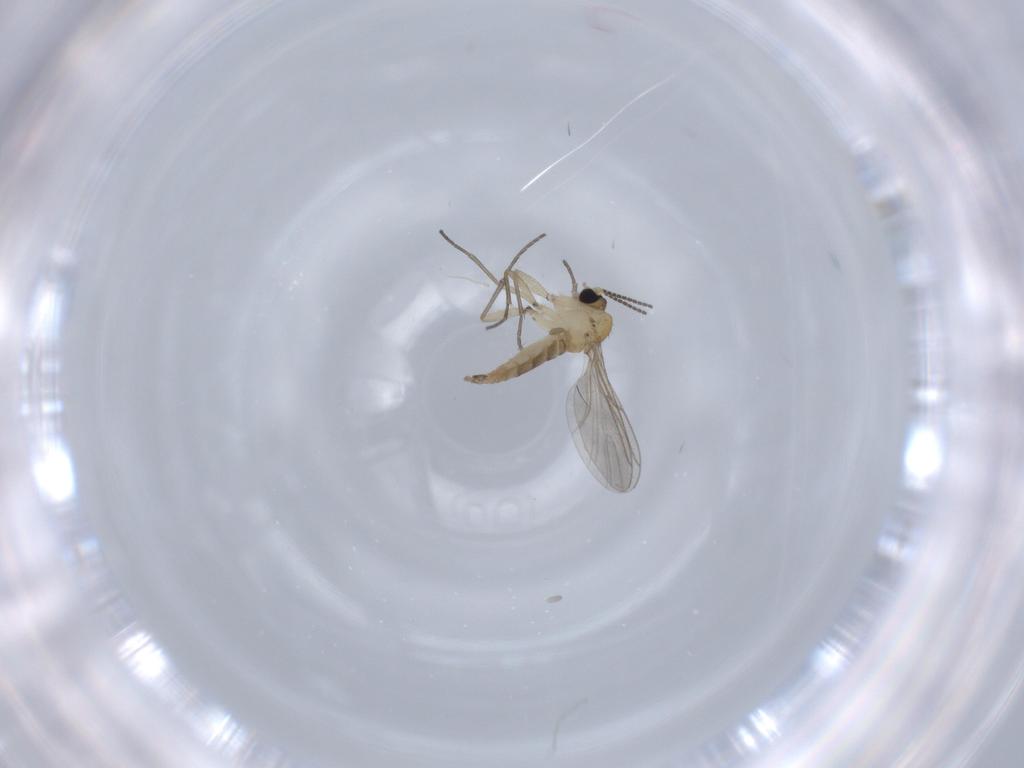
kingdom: Animalia
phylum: Arthropoda
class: Insecta
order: Diptera
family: Sciaridae
